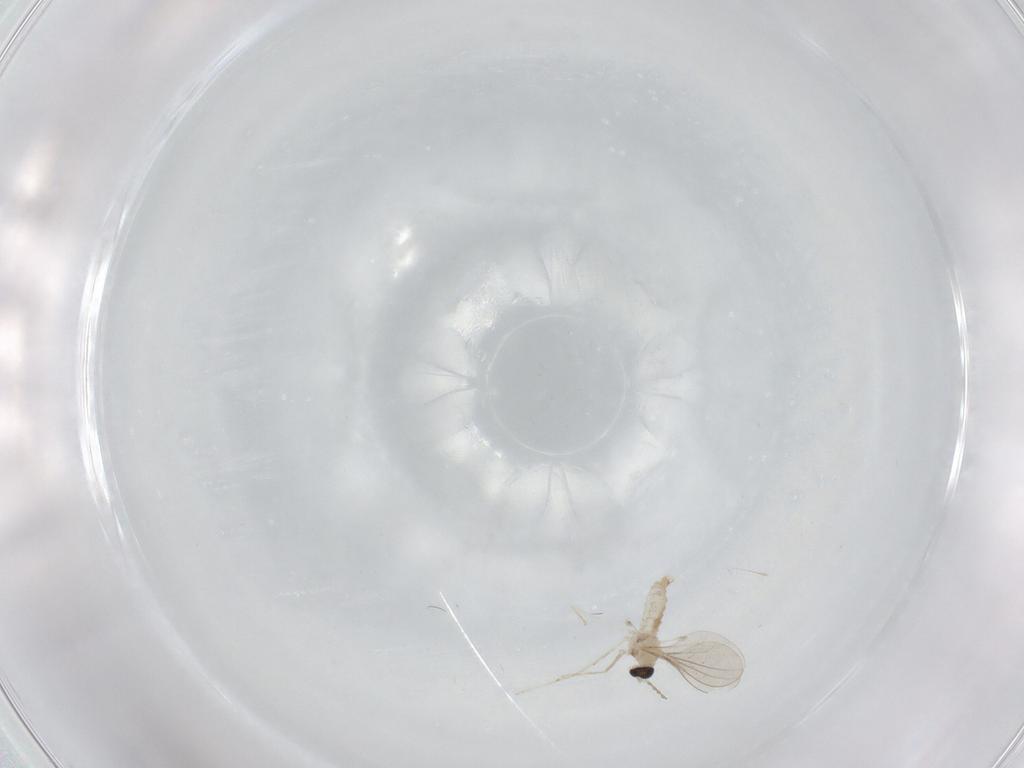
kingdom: Animalia
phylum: Arthropoda
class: Insecta
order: Diptera
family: Cecidomyiidae
